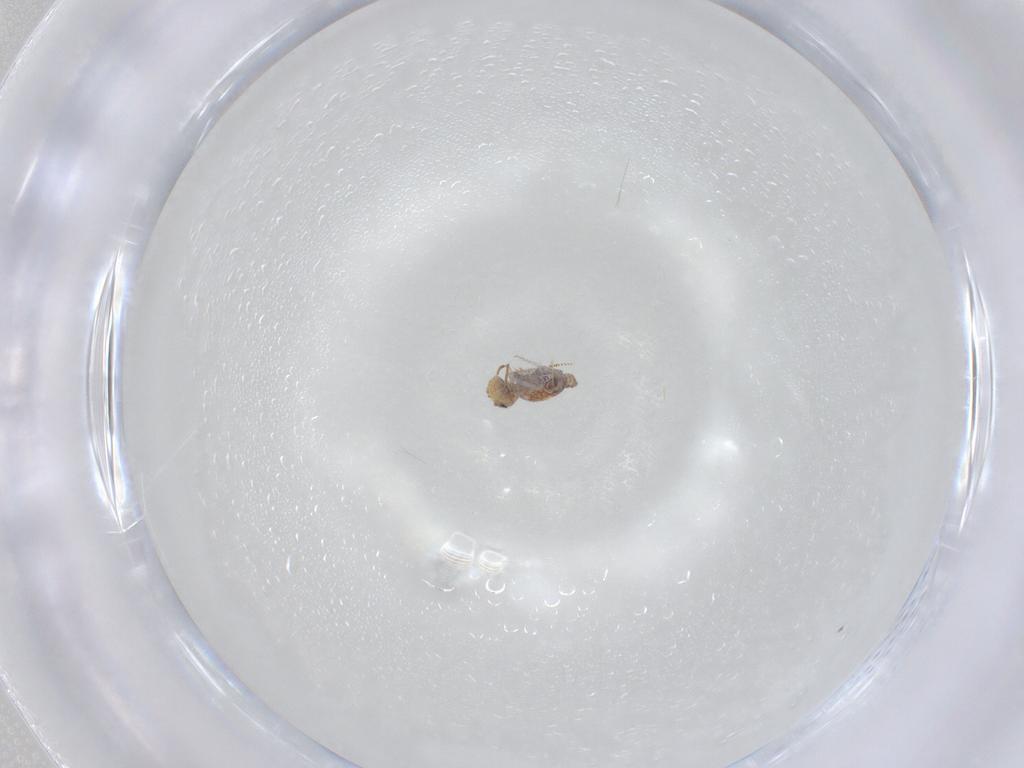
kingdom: Animalia
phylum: Arthropoda
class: Collembola
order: Symphypleona
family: Bourletiellidae
